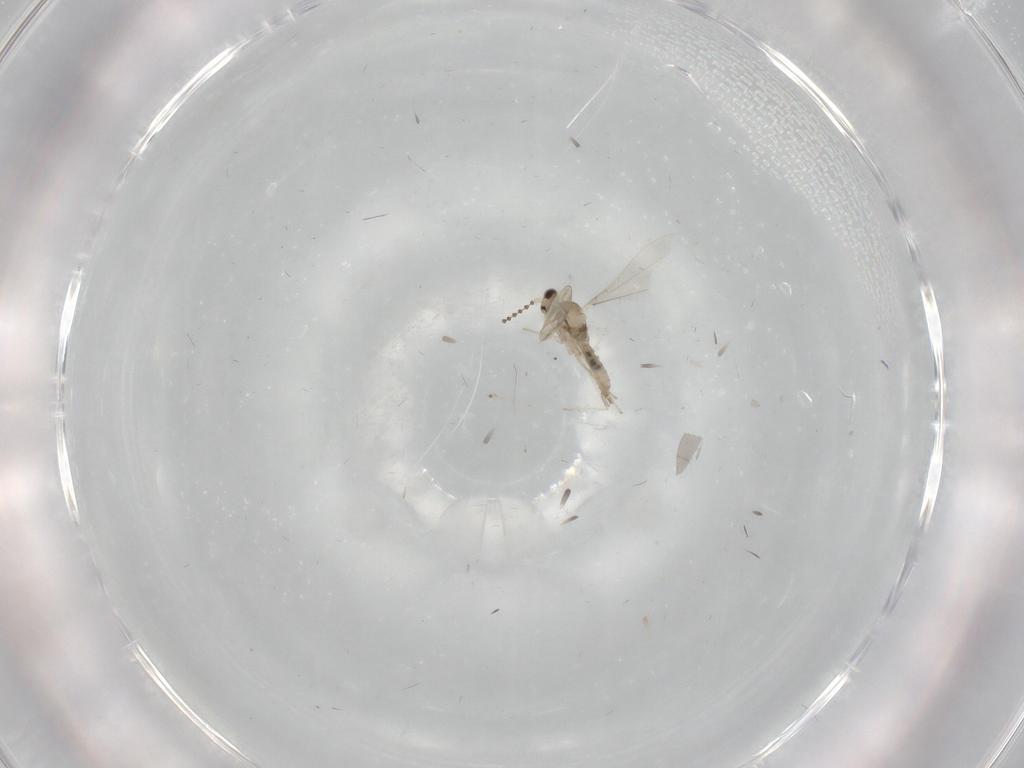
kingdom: Animalia
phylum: Arthropoda
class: Insecta
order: Diptera
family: Cecidomyiidae
